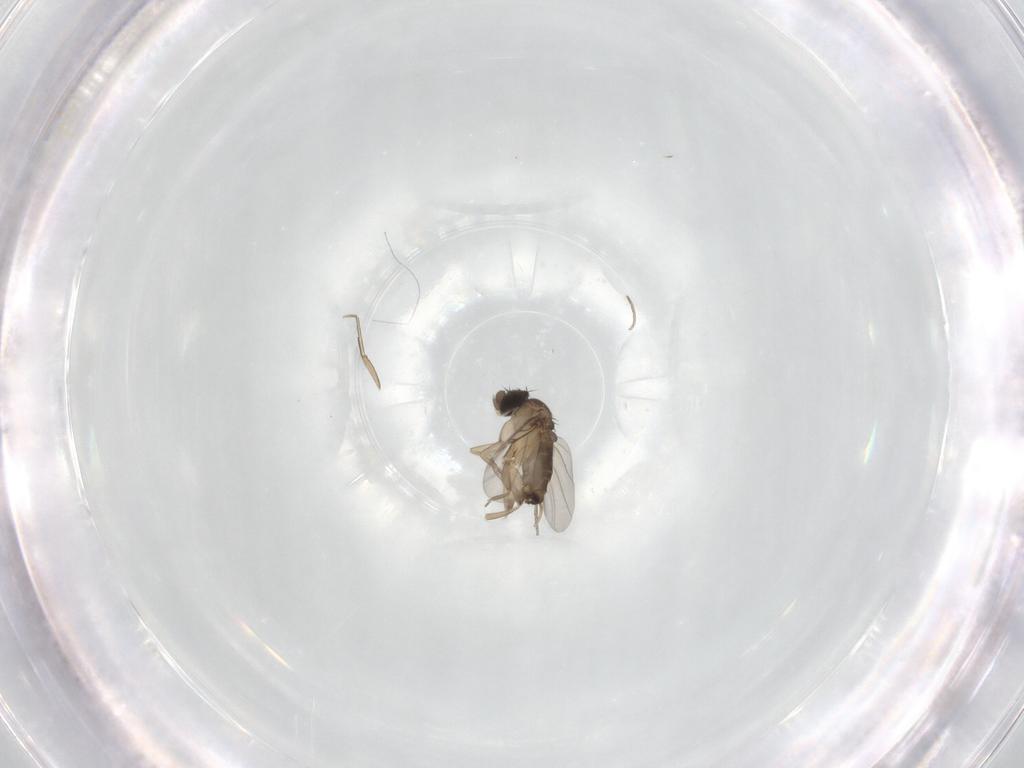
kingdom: Animalia
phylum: Arthropoda
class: Insecta
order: Diptera
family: Phoridae
